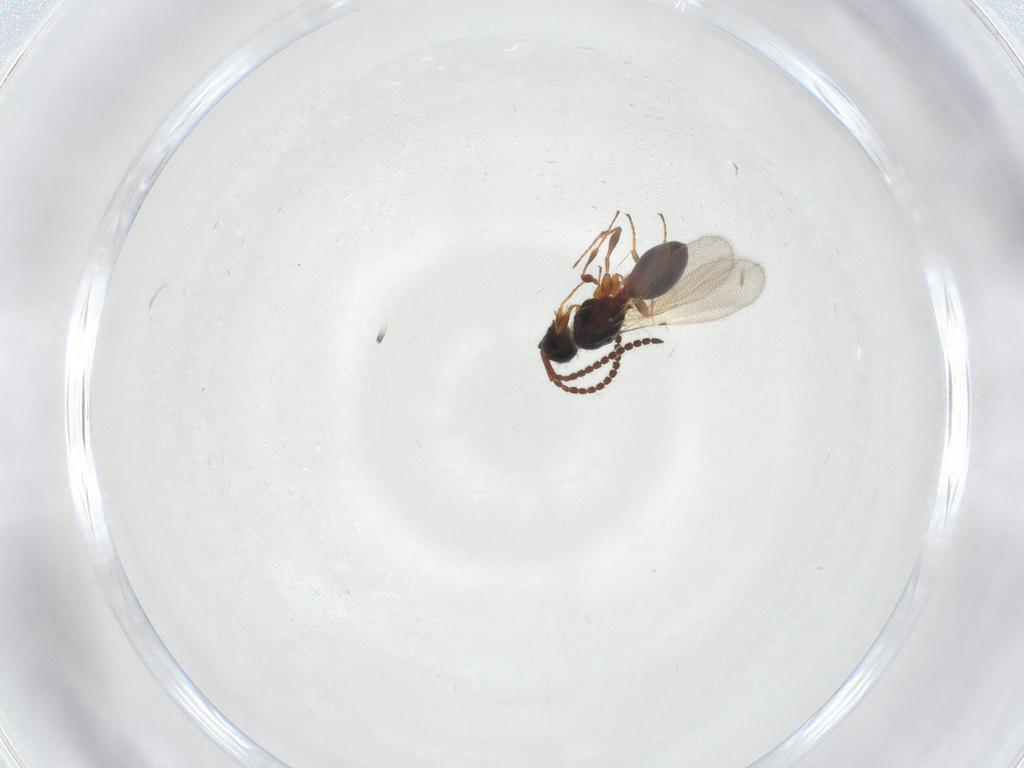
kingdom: Animalia
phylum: Arthropoda
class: Insecta
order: Hymenoptera
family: Diapriidae
